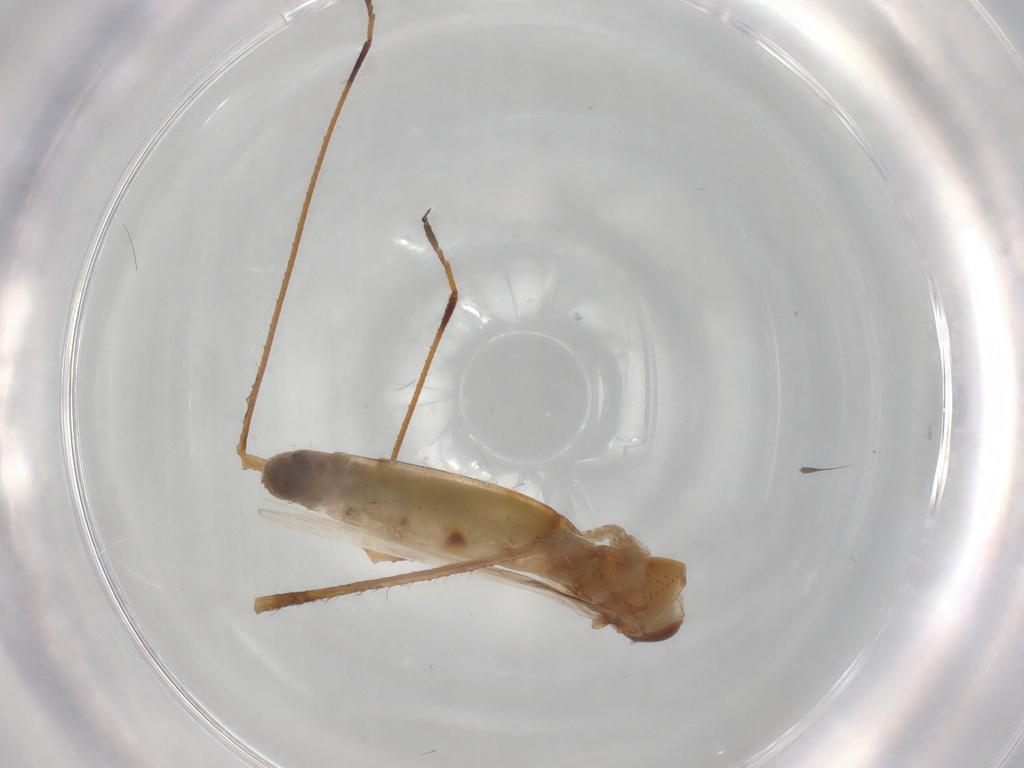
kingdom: Animalia
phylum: Arthropoda
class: Insecta
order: Hemiptera
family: Berytidae
